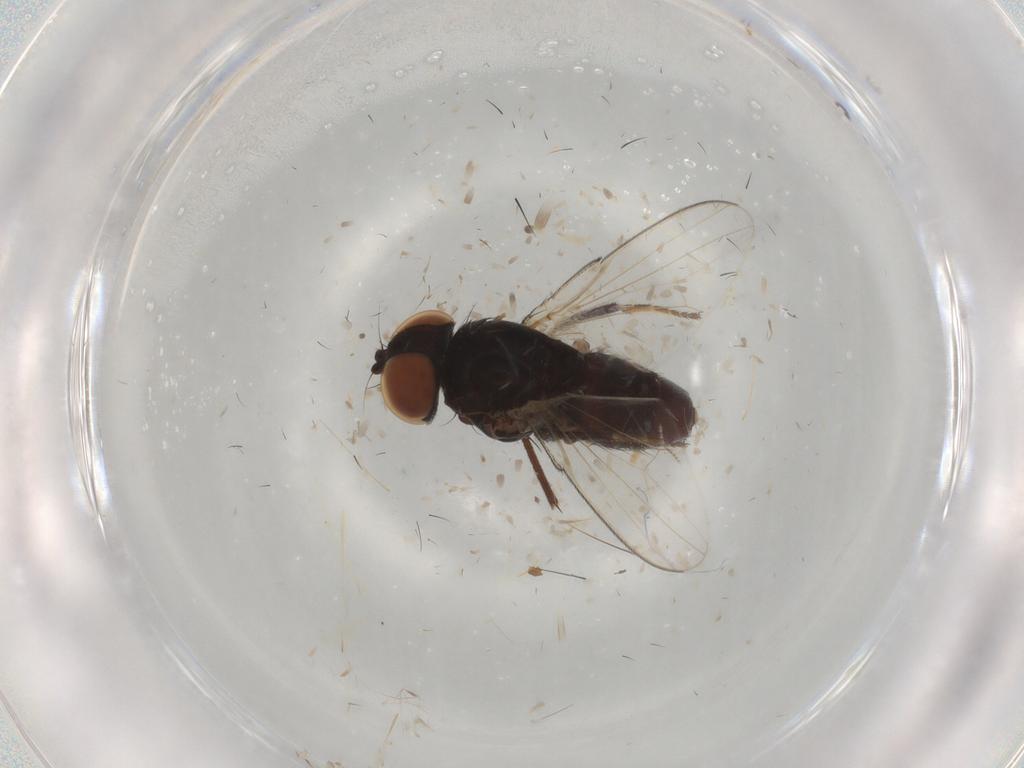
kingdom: Animalia
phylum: Arthropoda
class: Insecta
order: Diptera
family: Milichiidae
